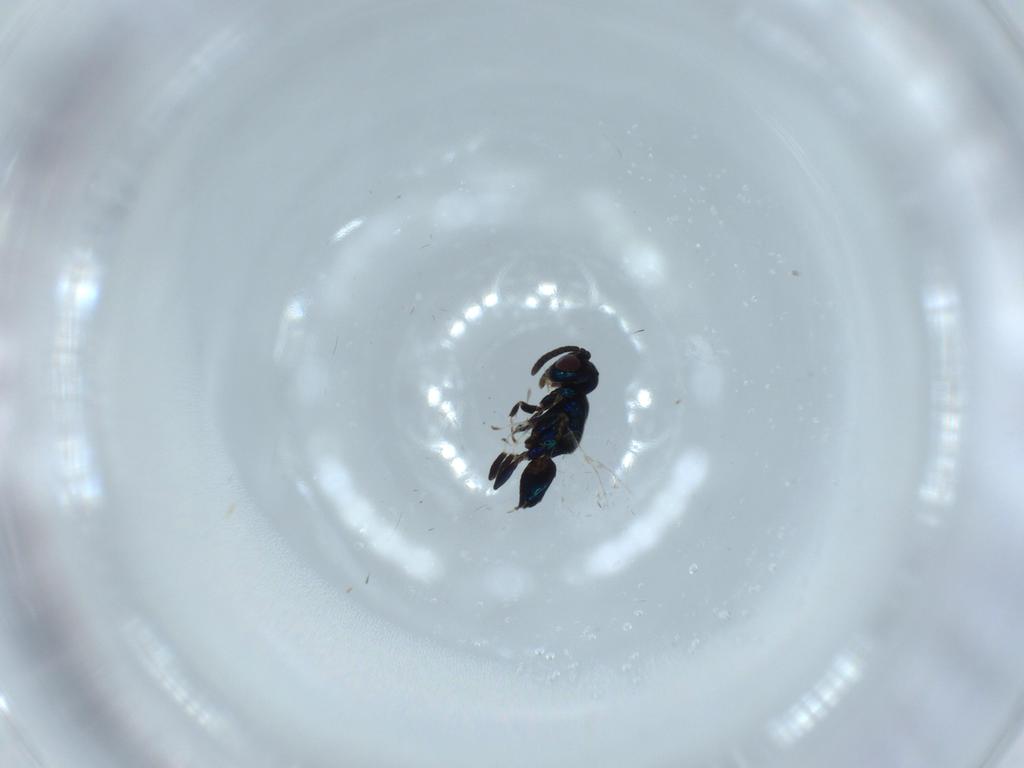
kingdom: Animalia
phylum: Arthropoda
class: Insecta
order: Hymenoptera
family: Eupelmidae
